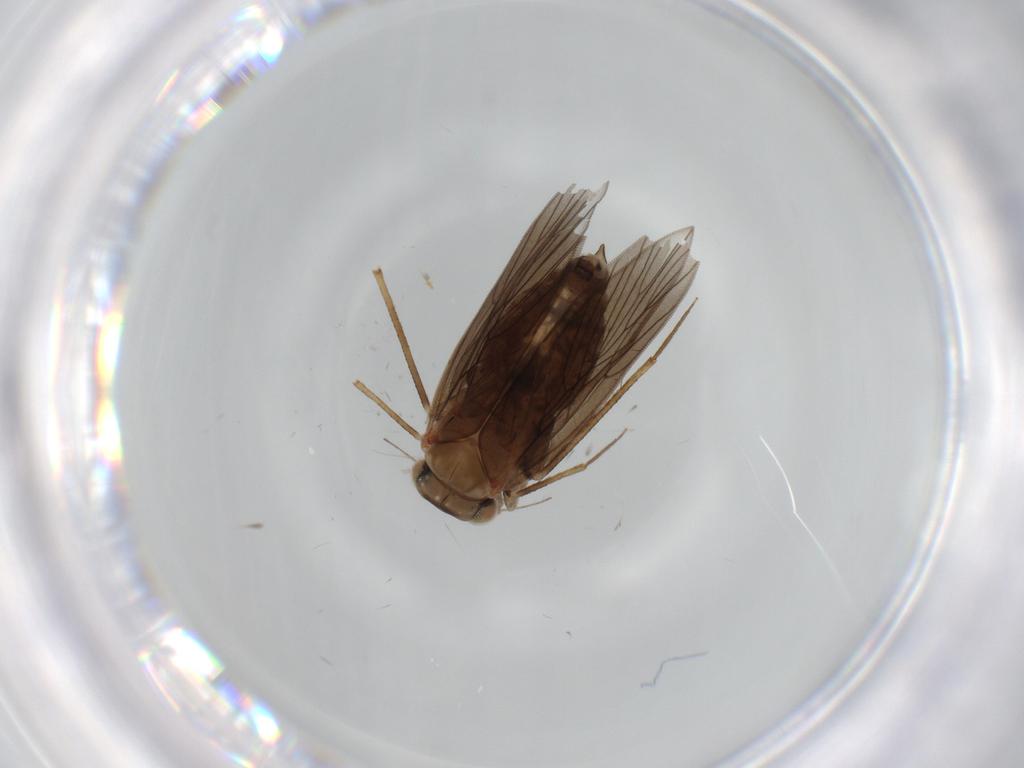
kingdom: Animalia
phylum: Arthropoda
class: Insecta
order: Psocodea
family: Lepidopsocidae
